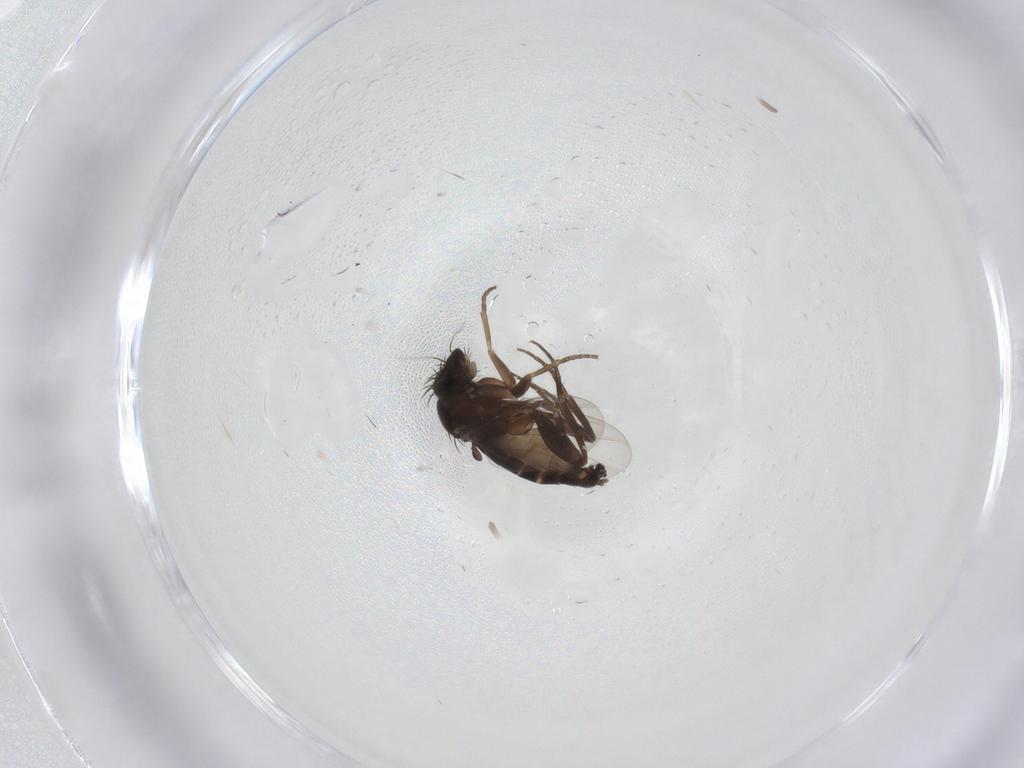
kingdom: Animalia
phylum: Arthropoda
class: Insecta
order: Diptera
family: Phoridae
